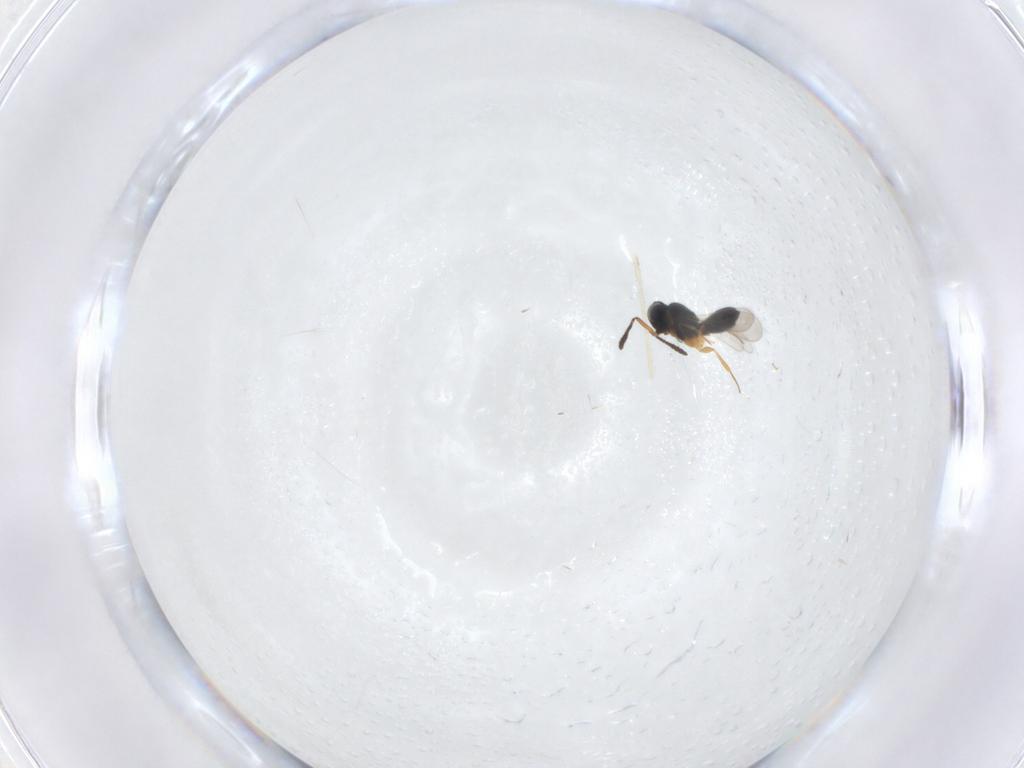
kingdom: Animalia
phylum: Arthropoda
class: Insecta
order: Hymenoptera
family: Scelionidae
